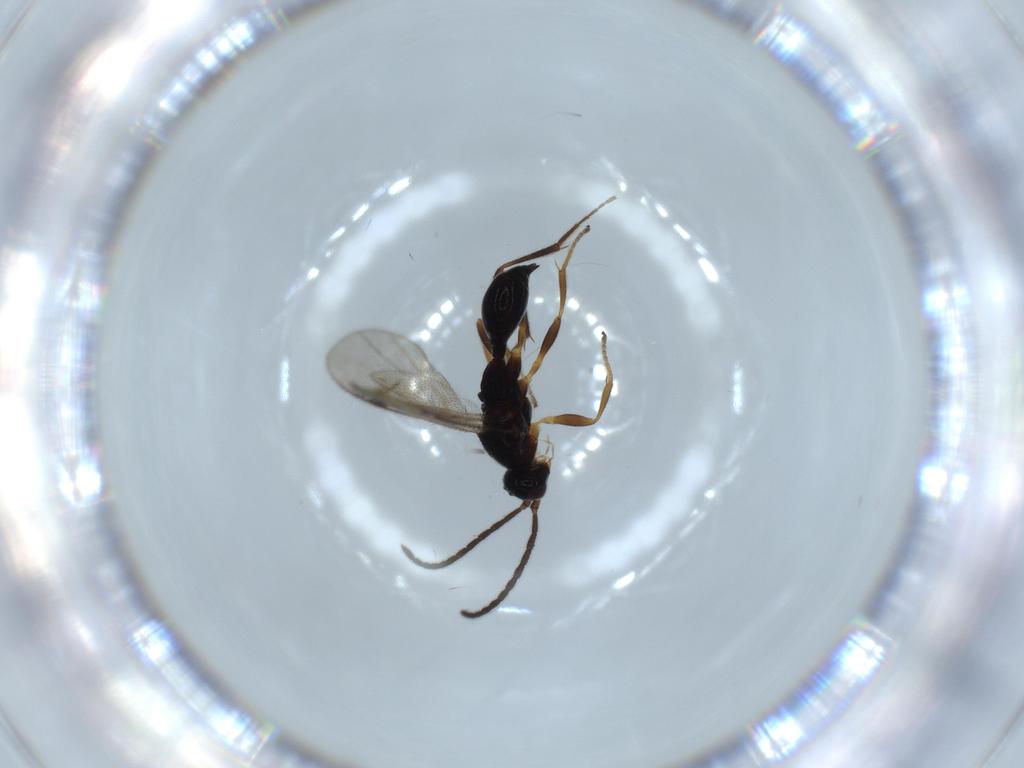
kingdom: Animalia
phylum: Arthropoda
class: Insecta
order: Hymenoptera
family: Proctotrupidae
